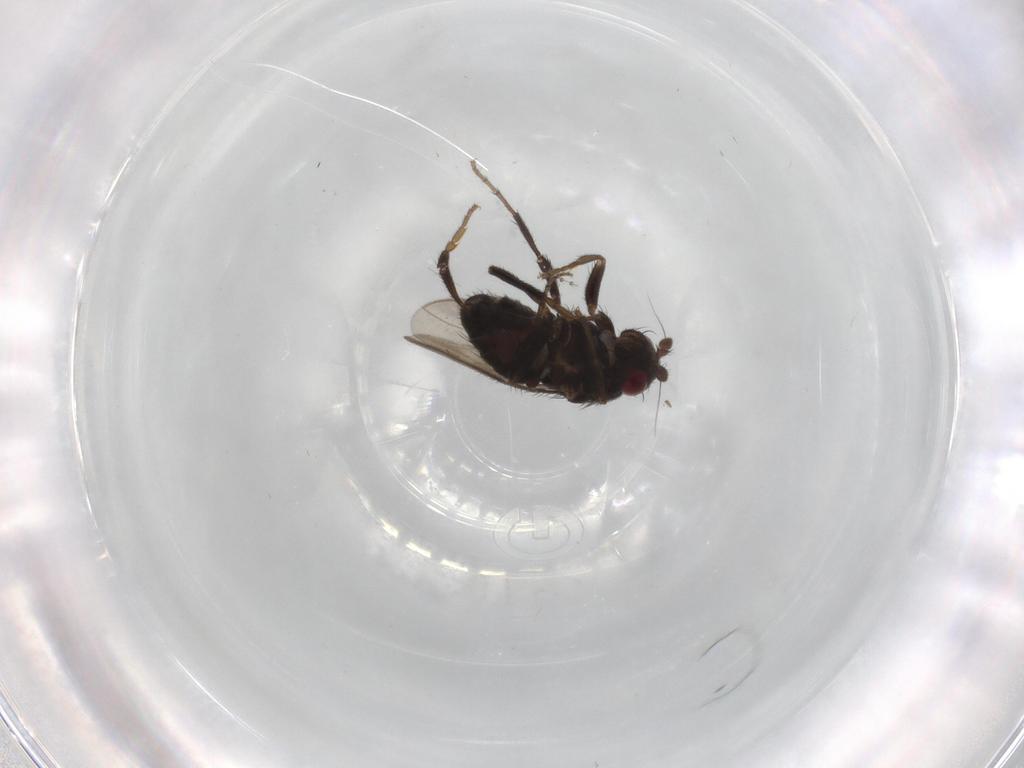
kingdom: Animalia
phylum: Arthropoda
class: Insecta
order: Diptera
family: Sphaeroceridae
